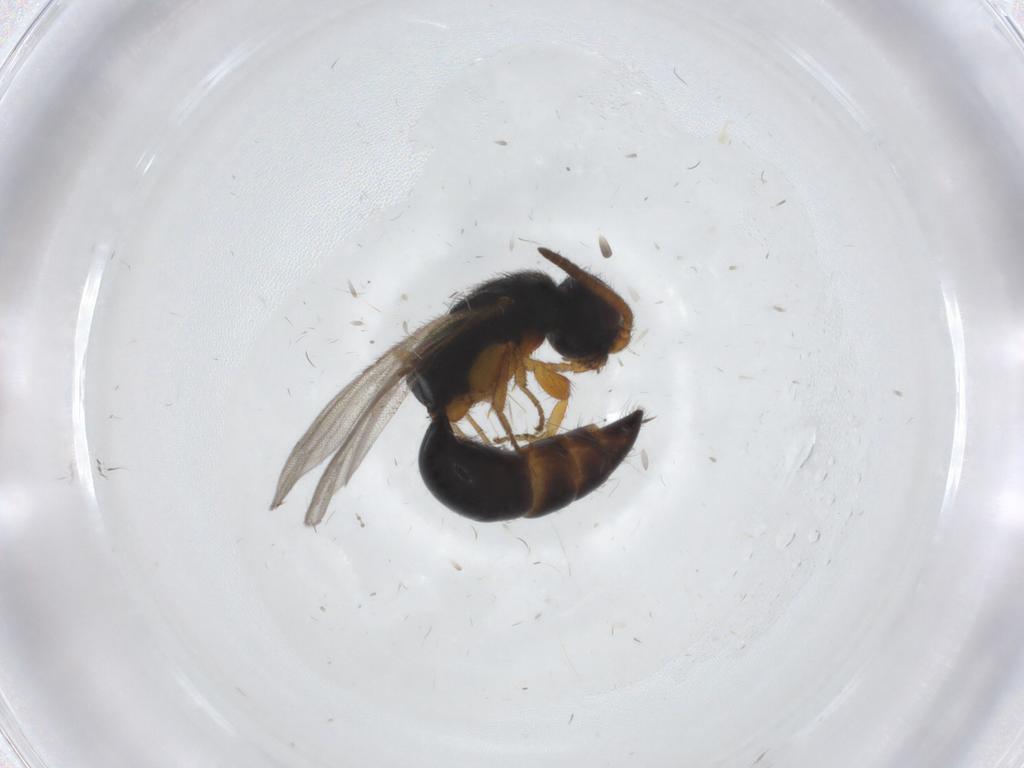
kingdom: Animalia
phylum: Arthropoda
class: Insecta
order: Hymenoptera
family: Bethylidae
